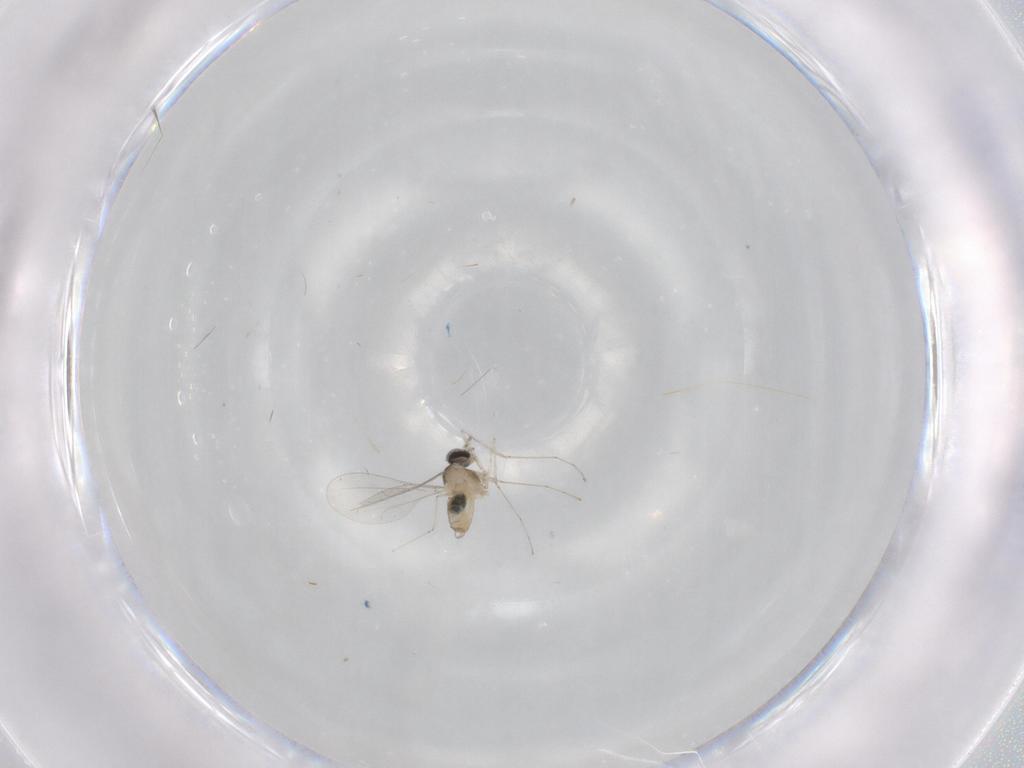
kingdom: Animalia
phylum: Arthropoda
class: Insecta
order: Diptera
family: Cecidomyiidae
